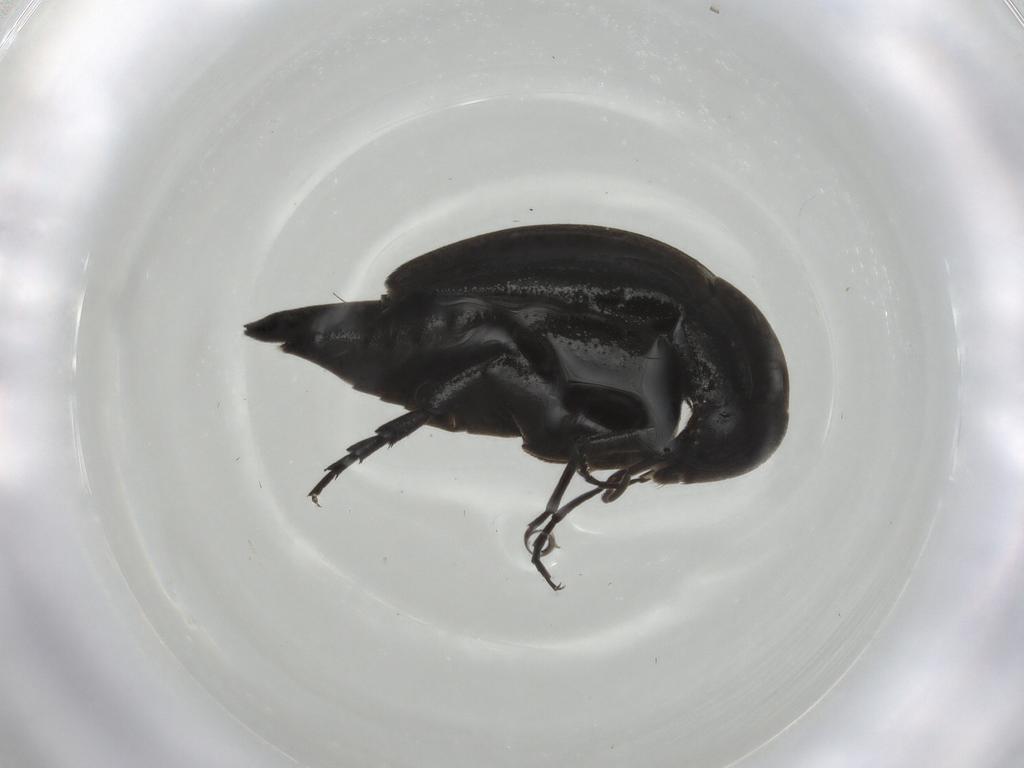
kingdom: Animalia
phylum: Arthropoda
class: Insecta
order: Coleoptera
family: Mordellidae
